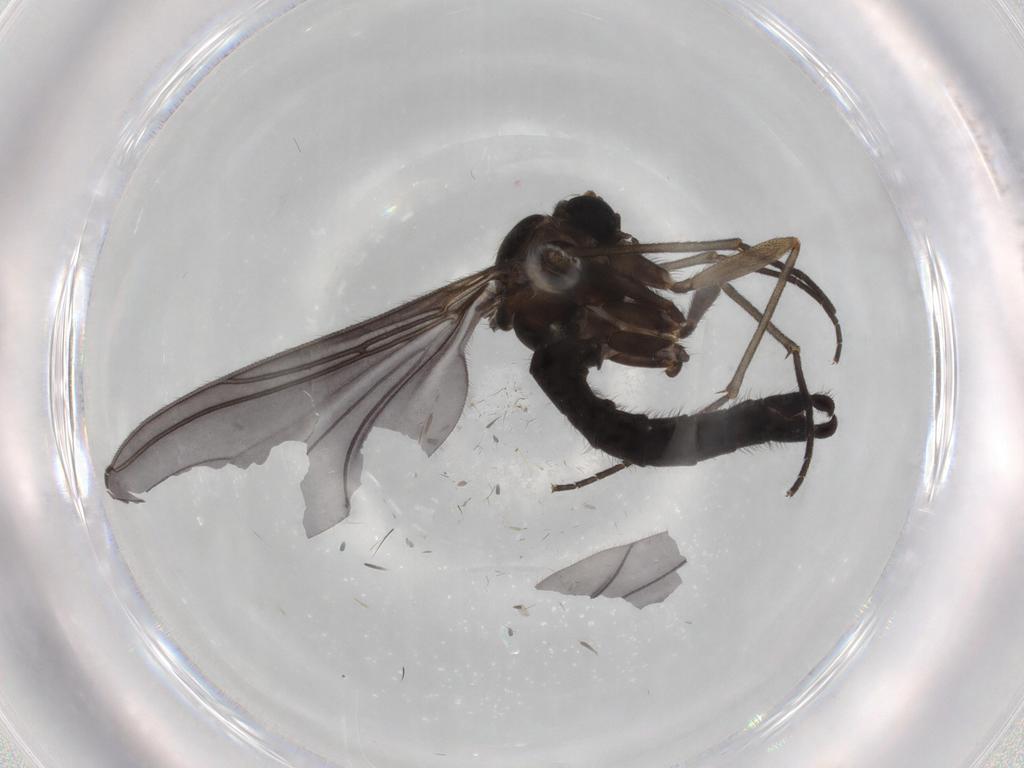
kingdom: Animalia
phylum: Arthropoda
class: Insecta
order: Diptera
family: Sciaridae
